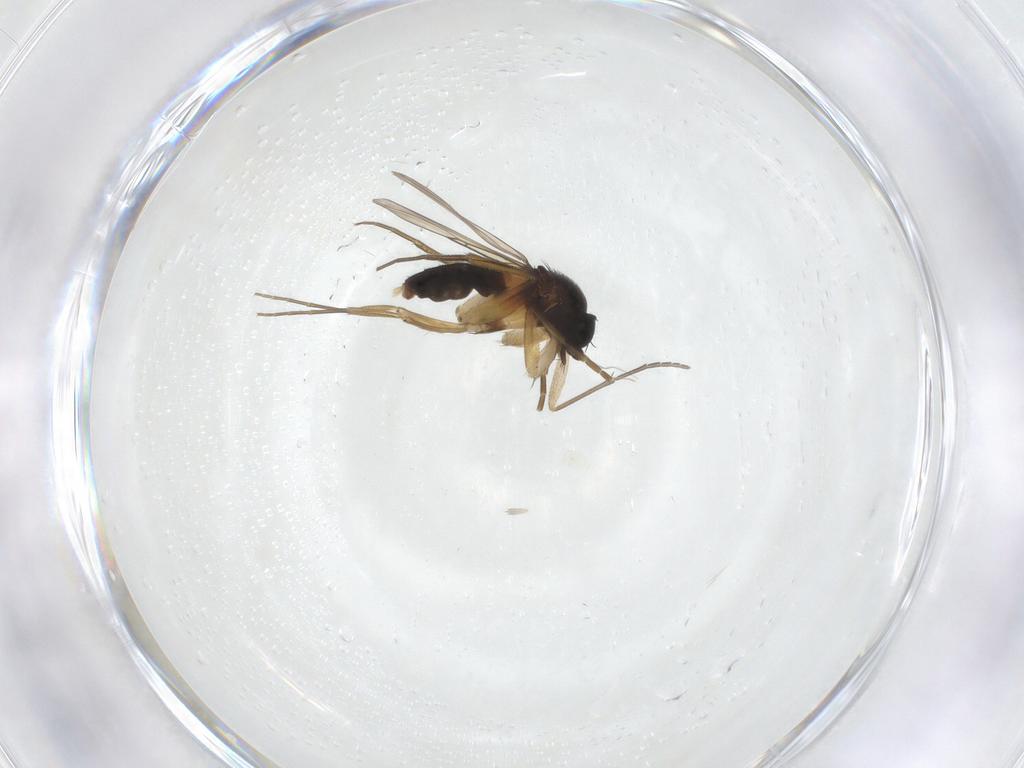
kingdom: Animalia
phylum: Arthropoda
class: Insecta
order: Diptera
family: Phoridae
